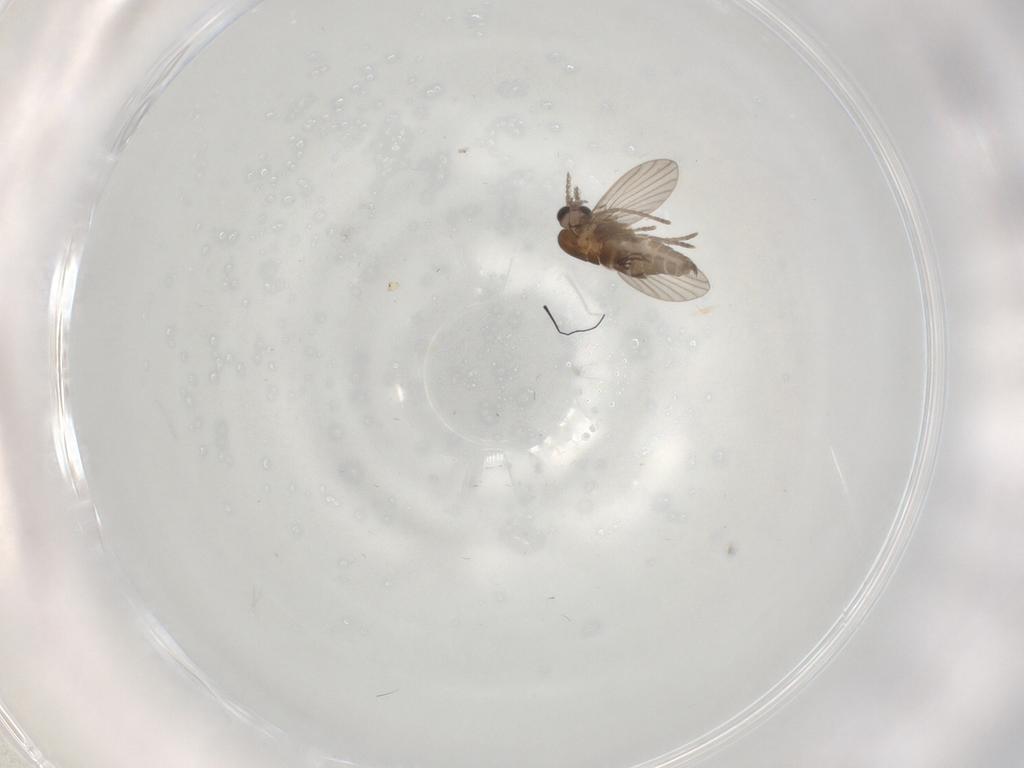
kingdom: Animalia
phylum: Arthropoda
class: Insecta
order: Diptera
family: Cecidomyiidae
